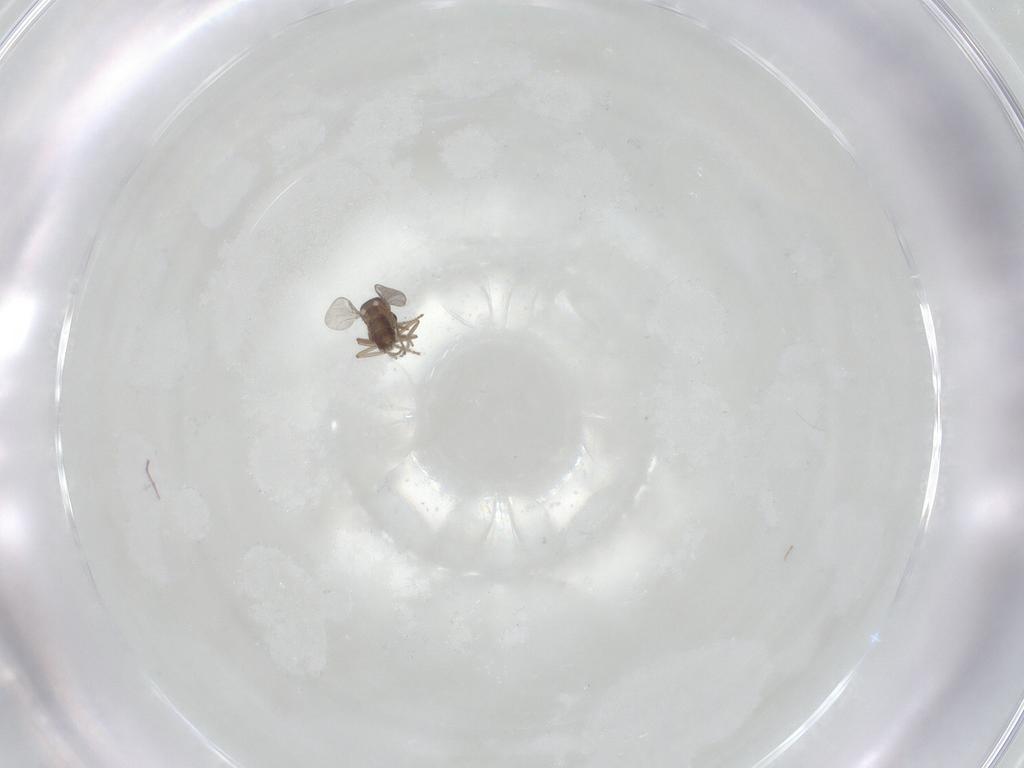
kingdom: Animalia
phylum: Arthropoda
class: Insecta
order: Diptera
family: Ceratopogonidae
